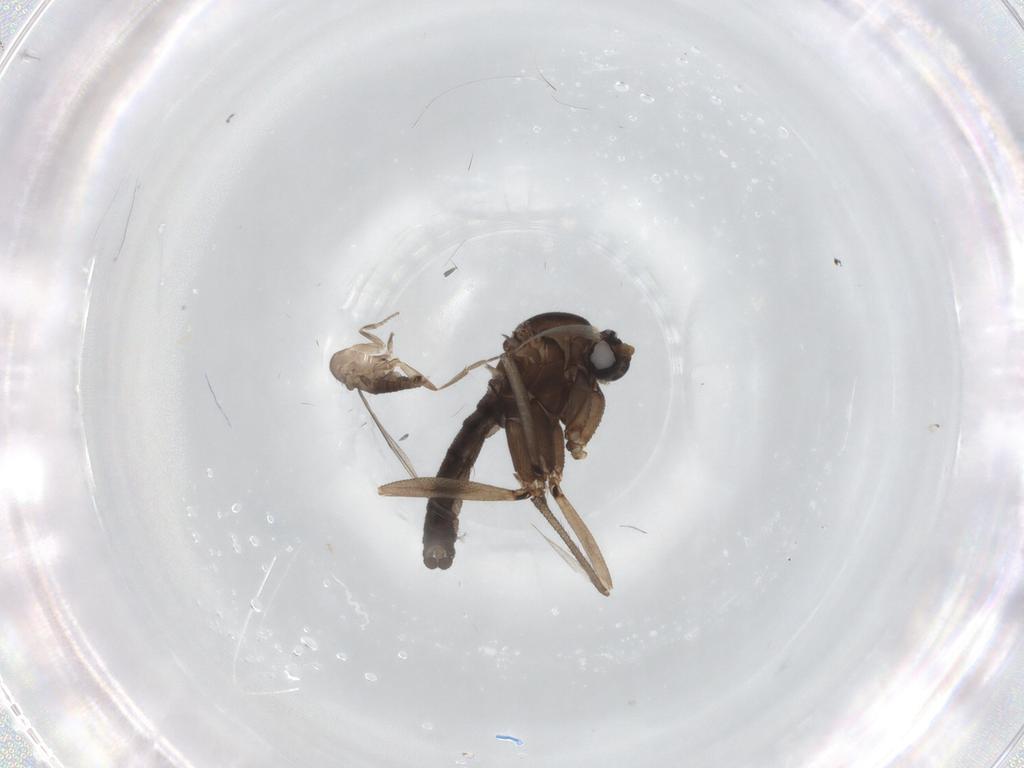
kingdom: Animalia
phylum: Arthropoda
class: Insecta
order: Diptera
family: Sciaridae
